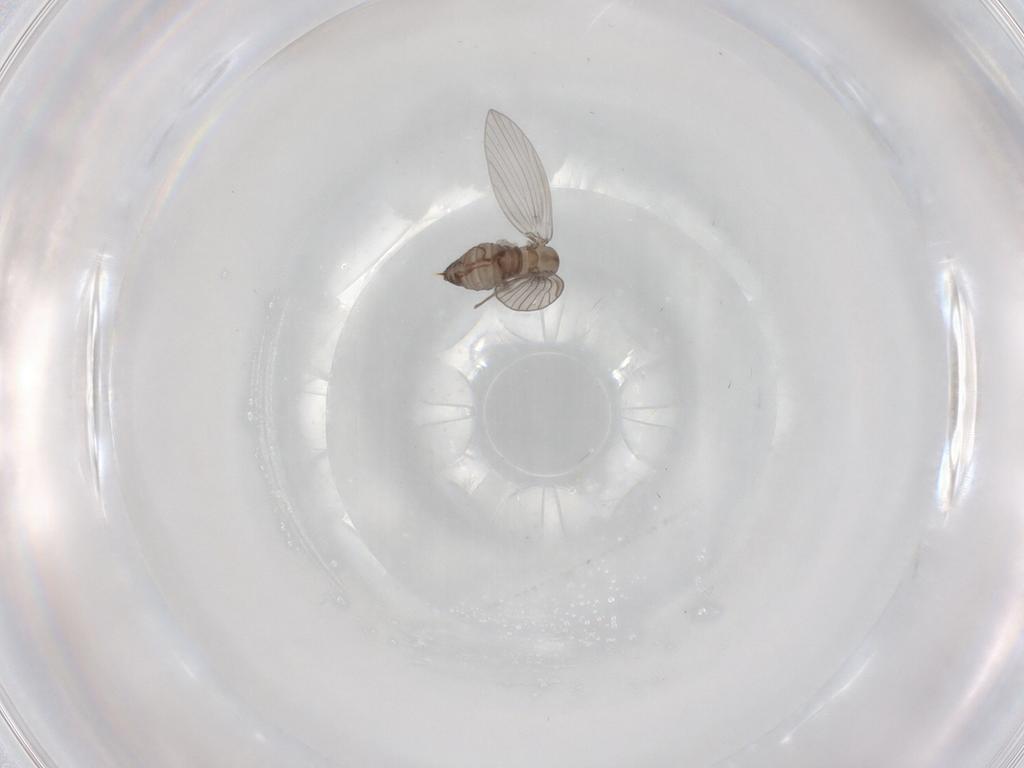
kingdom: Animalia
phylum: Arthropoda
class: Insecta
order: Diptera
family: Psychodidae
